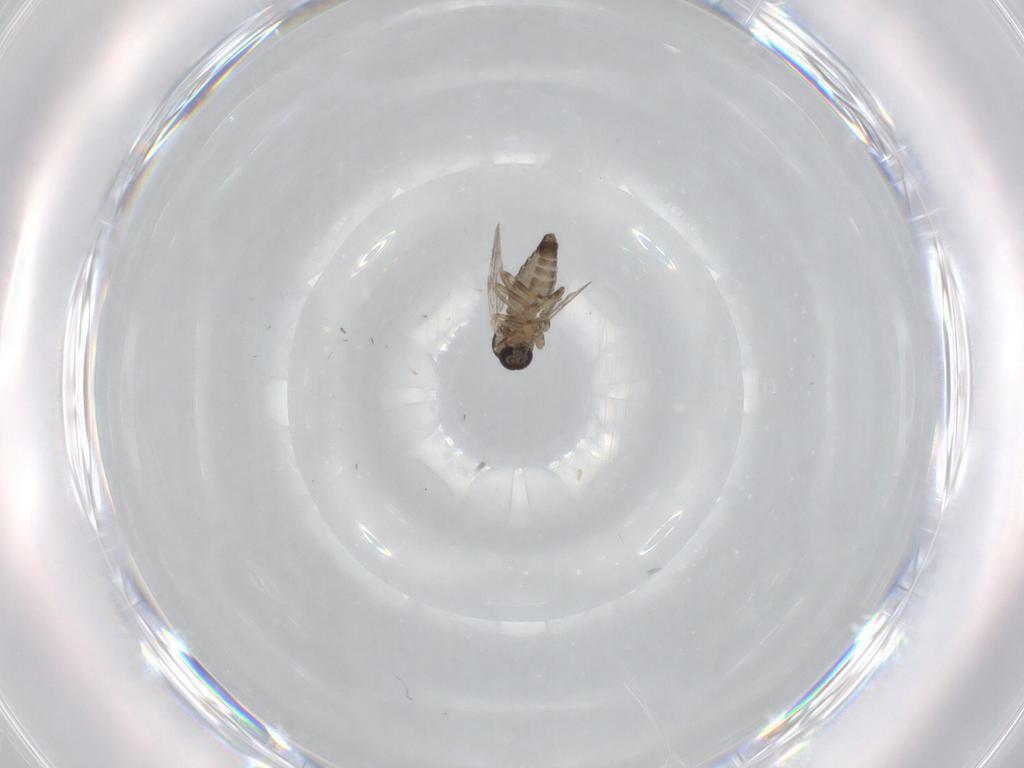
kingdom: Animalia
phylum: Arthropoda
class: Insecta
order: Diptera
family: Ceratopogonidae
